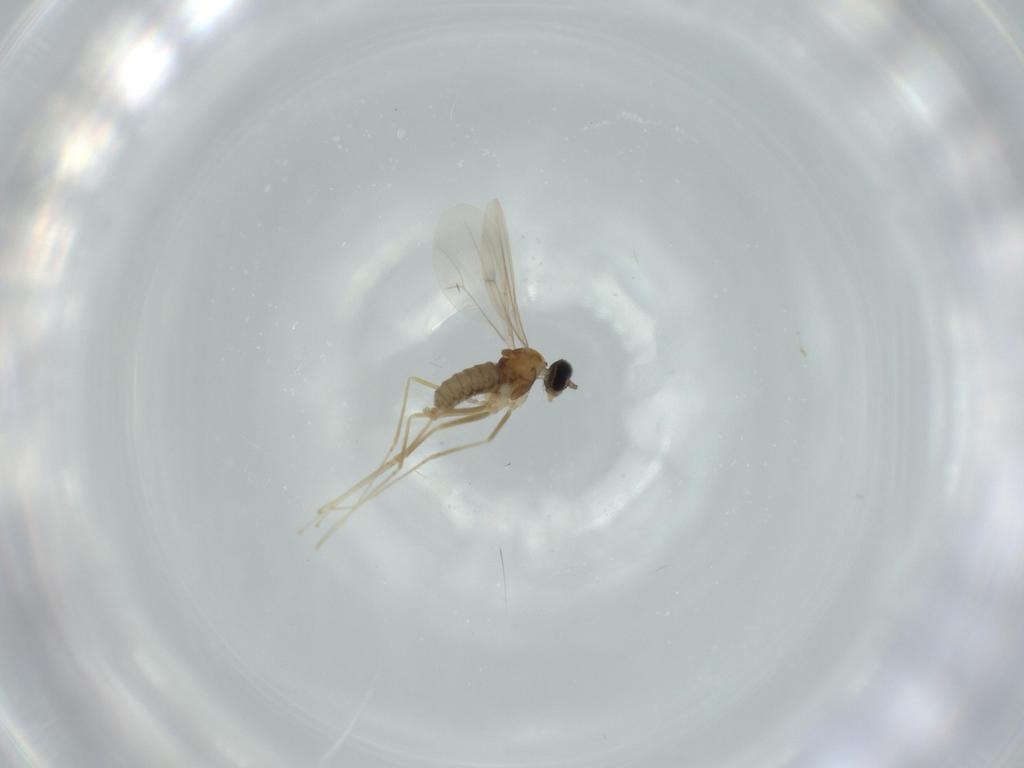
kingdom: Animalia
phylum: Arthropoda
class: Insecta
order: Diptera
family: Cecidomyiidae
